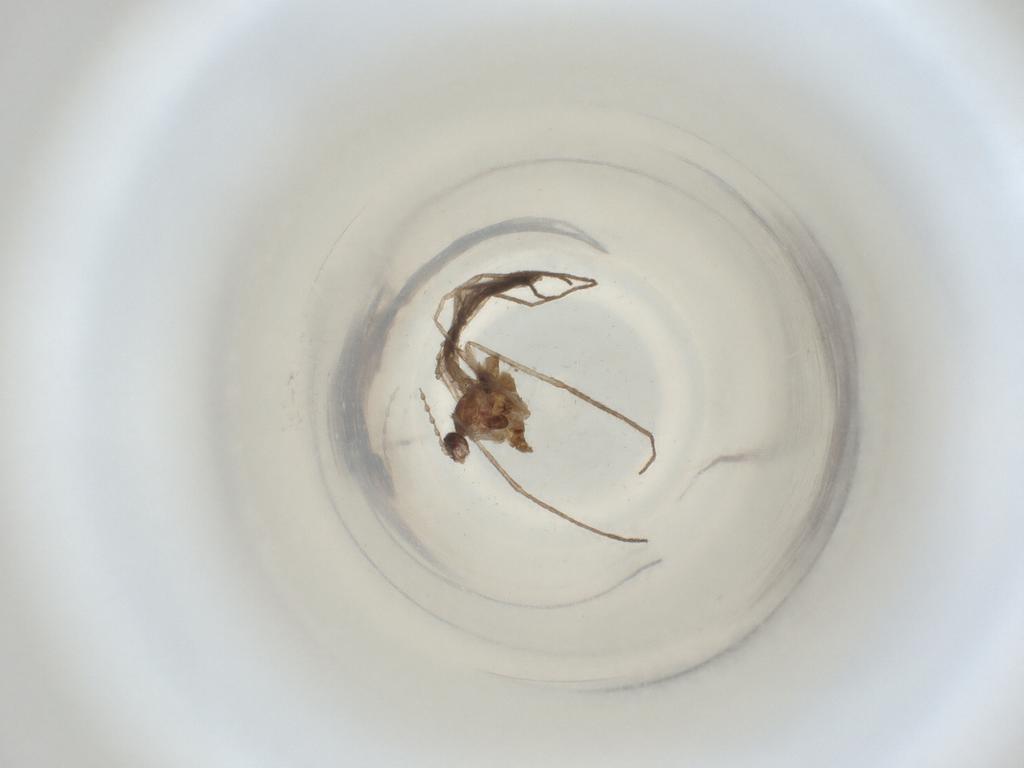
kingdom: Animalia
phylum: Arthropoda
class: Insecta
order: Diptera
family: Cecidomyiidae
